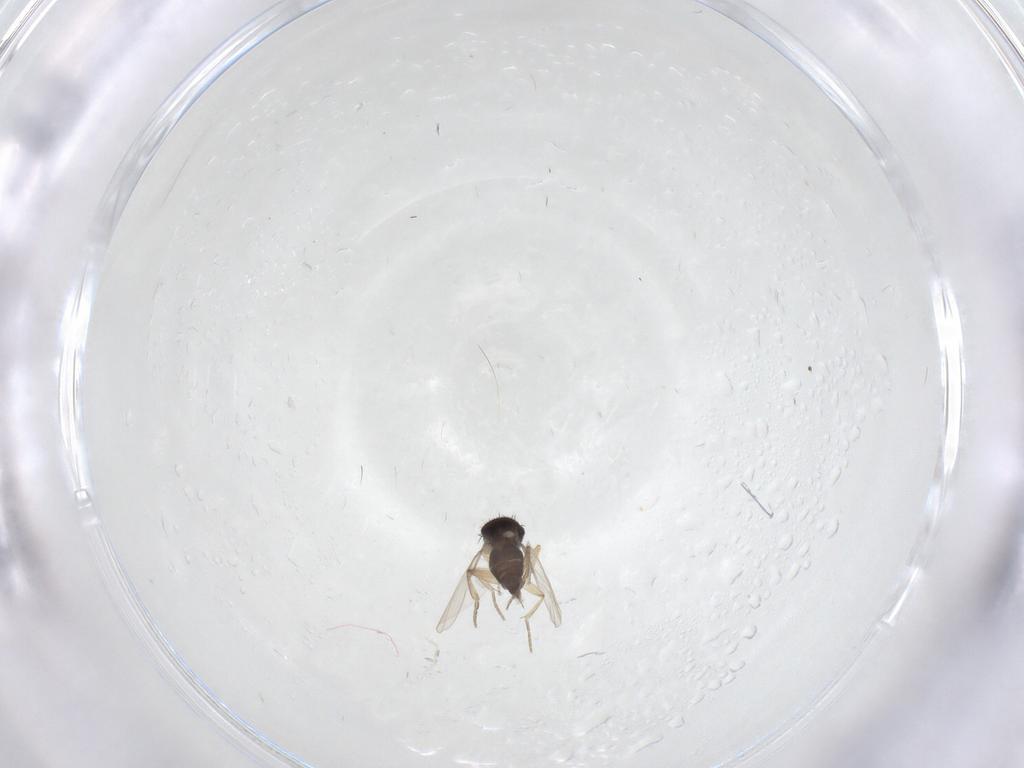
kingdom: Animalia
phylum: Arthropoda
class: Insecta
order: Diptera
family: Phoridae
